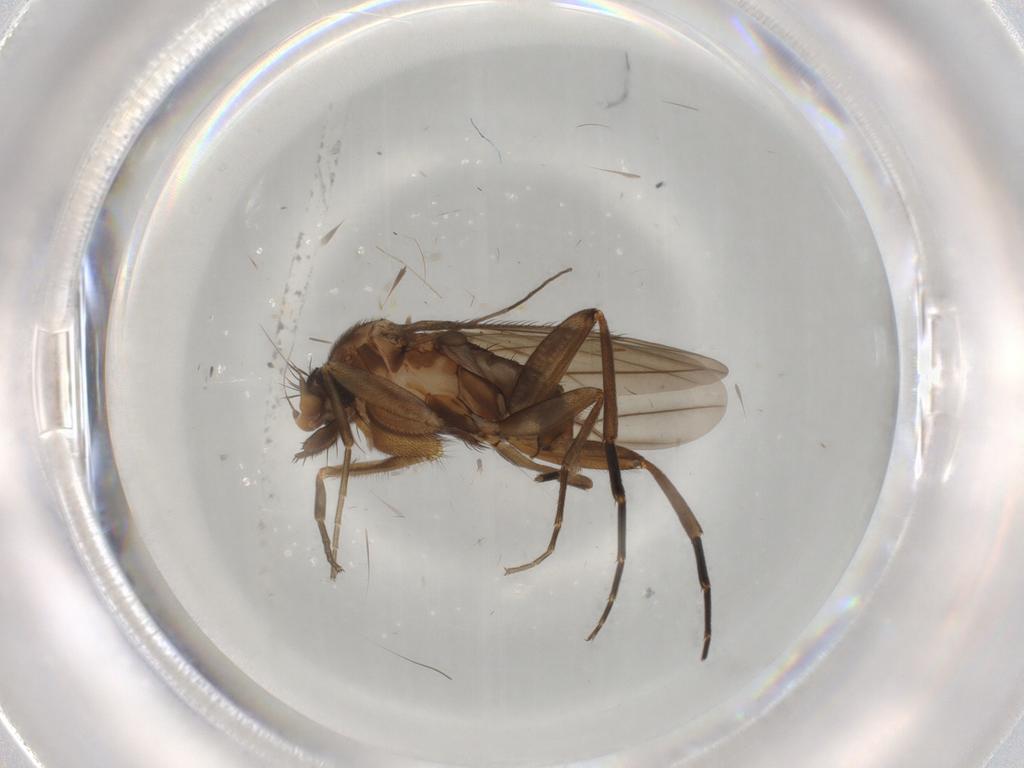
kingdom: Animalia
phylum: Arthropoda
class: Insecta
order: Diptera
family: Phoridae
